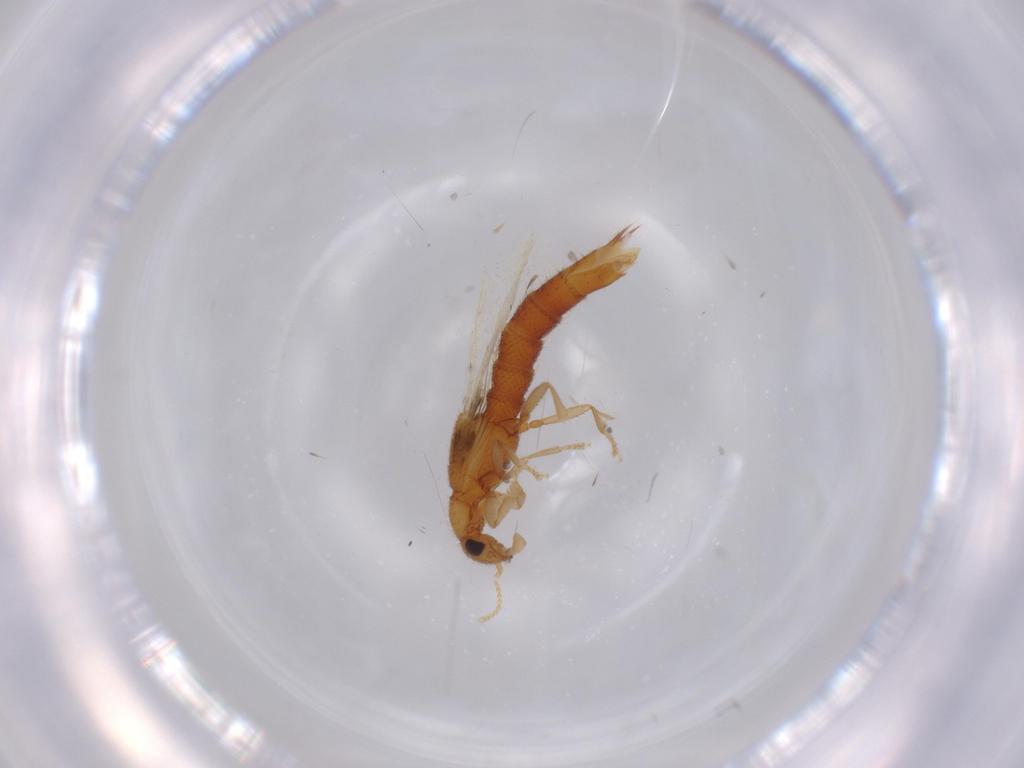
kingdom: Animalia
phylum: Arthropoda
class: Insecta
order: Coleoptera
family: Staphylinidae
